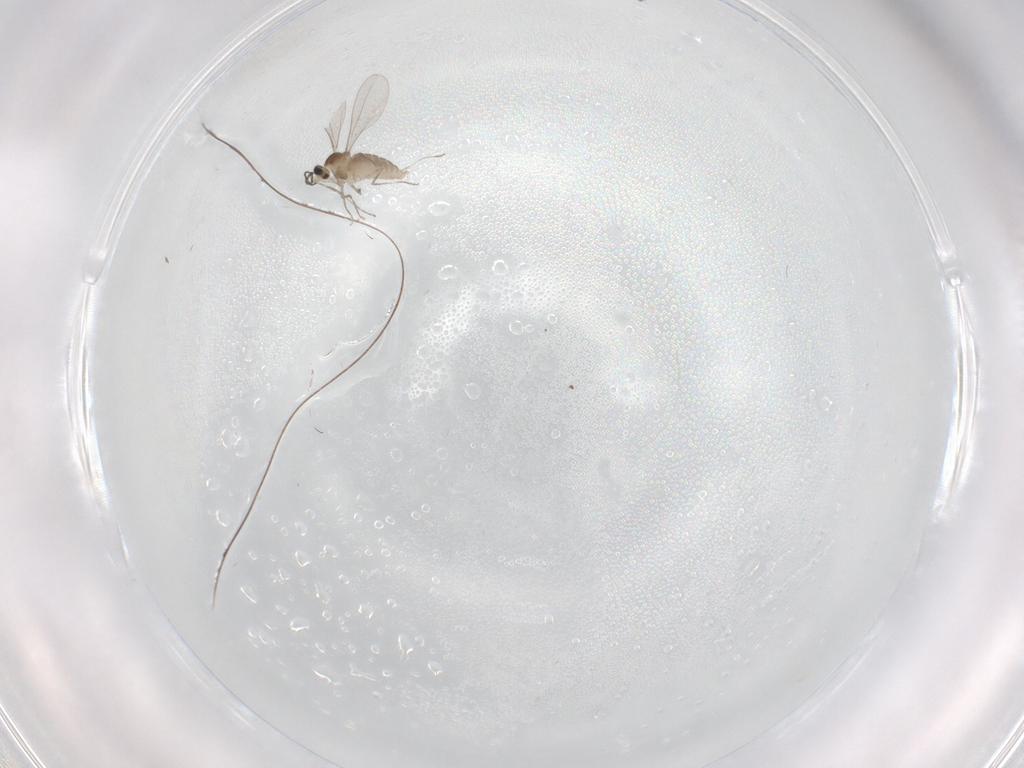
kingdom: Animalia
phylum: Arthropoda
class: Insecta
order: Diptera
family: Cecidomyiidae
